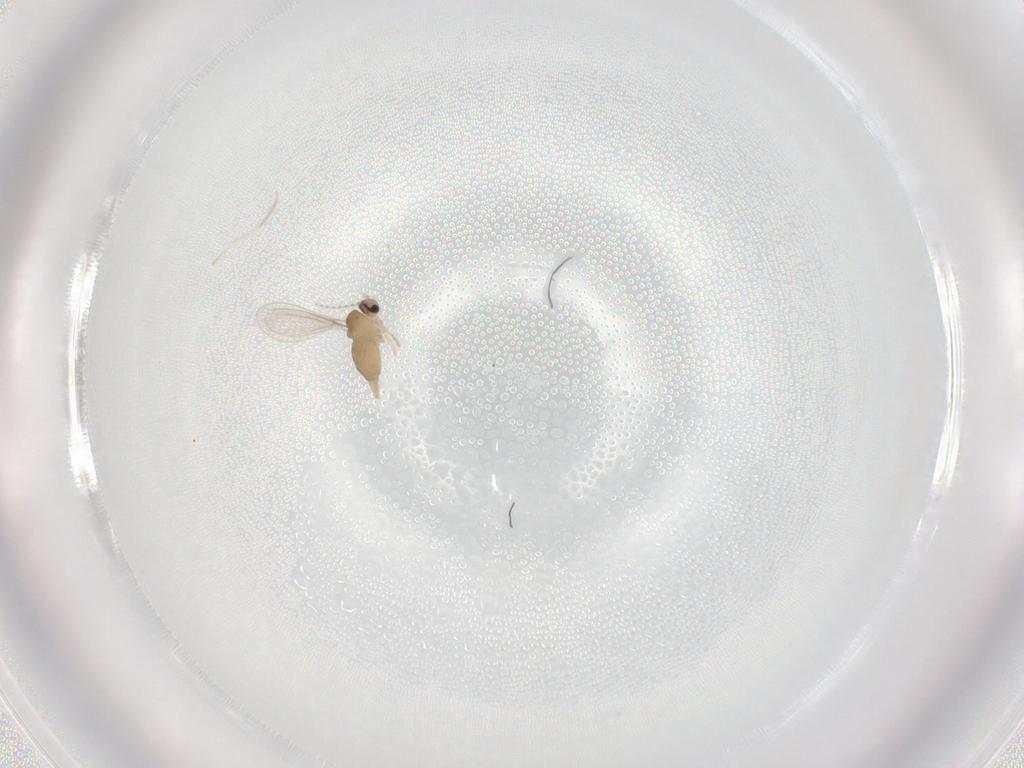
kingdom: Animalia
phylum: Arthropoda
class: Insecta
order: Diptera
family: Cecidomyiidae
